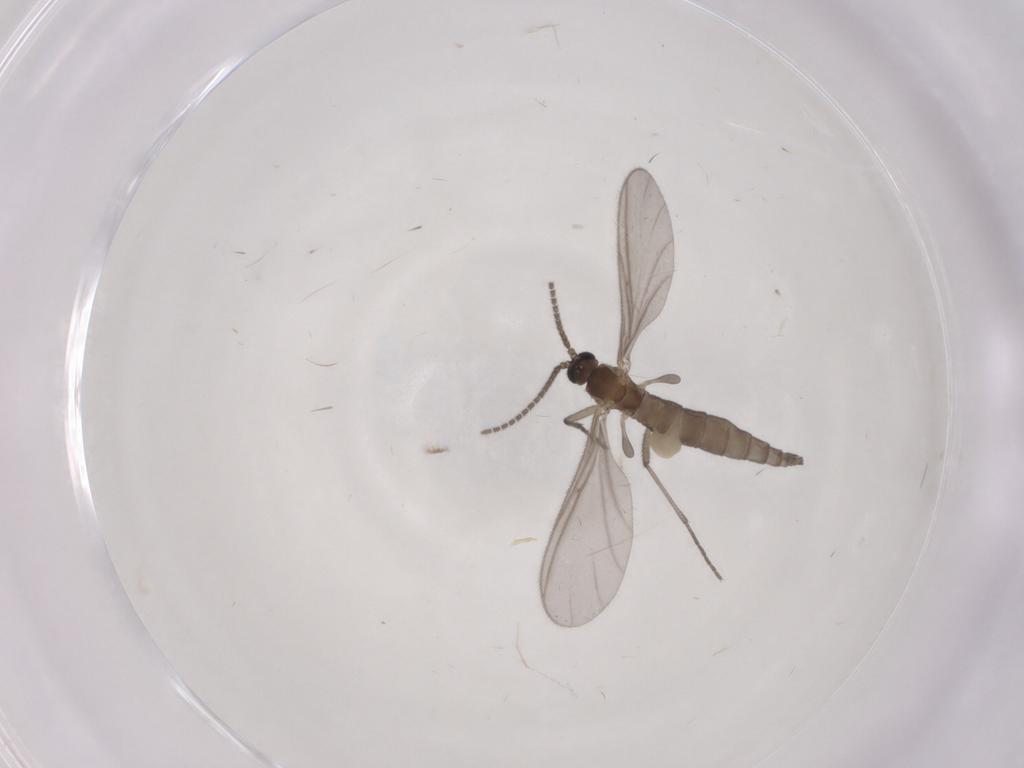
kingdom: Animalia
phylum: Arthropoda
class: Insecta
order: Diptera
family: Sciaridae
